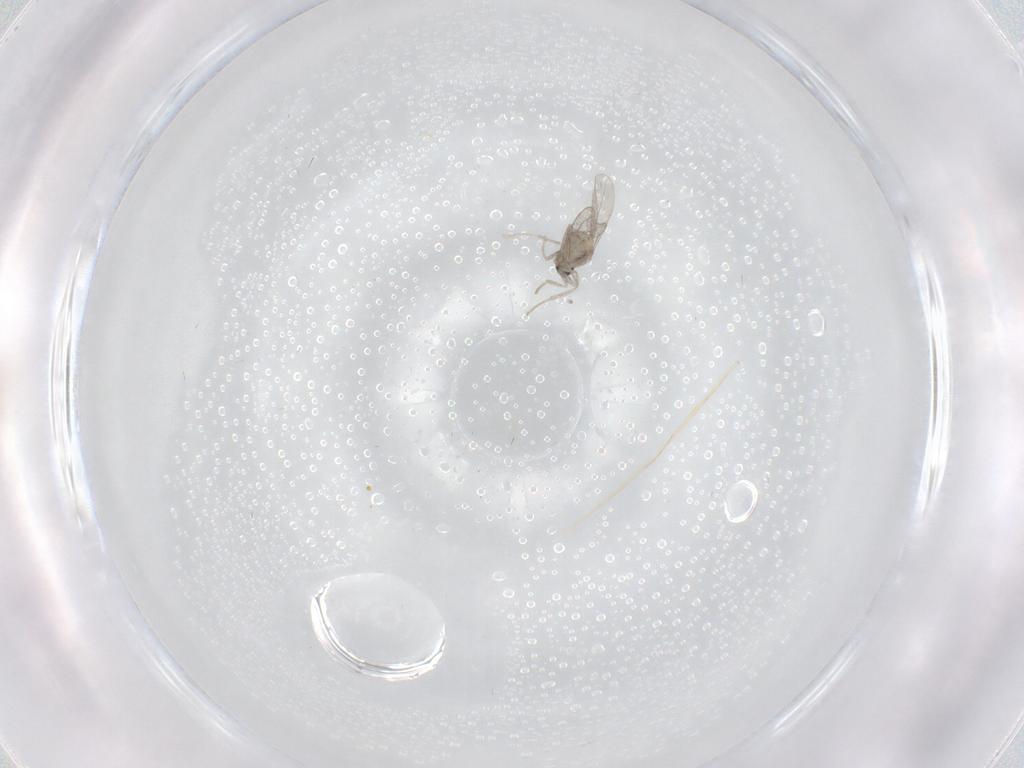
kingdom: Animalia
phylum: Arthropoda
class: Insecta
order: Diptera
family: Cecidomyiidae
